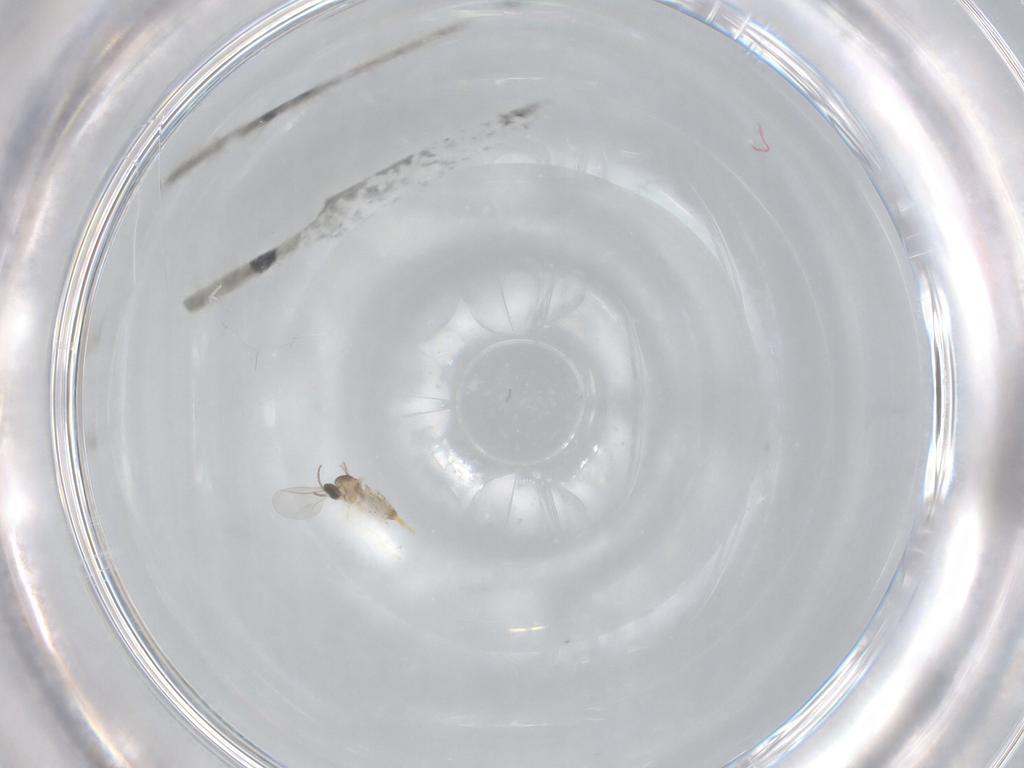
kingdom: Animalia
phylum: Arthropoda
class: Insecta
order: Diptera
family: Cecidomyiidae
